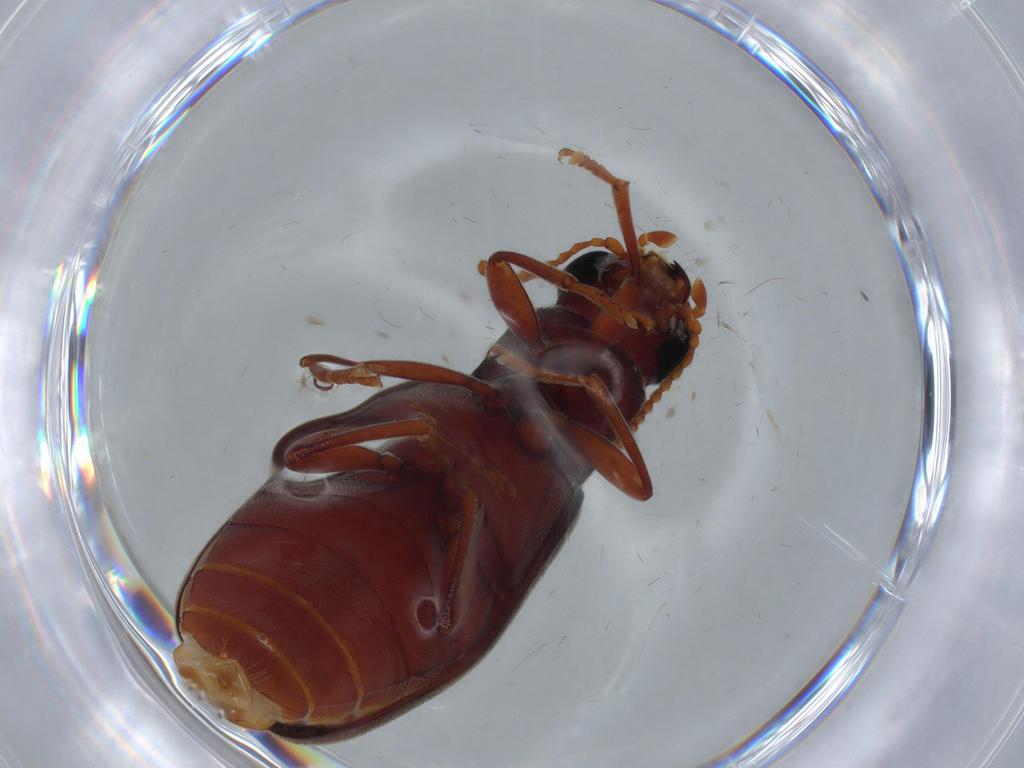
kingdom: Animalia
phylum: Arthropoda
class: Insecta
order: Coleoptera
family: Mycteridae
